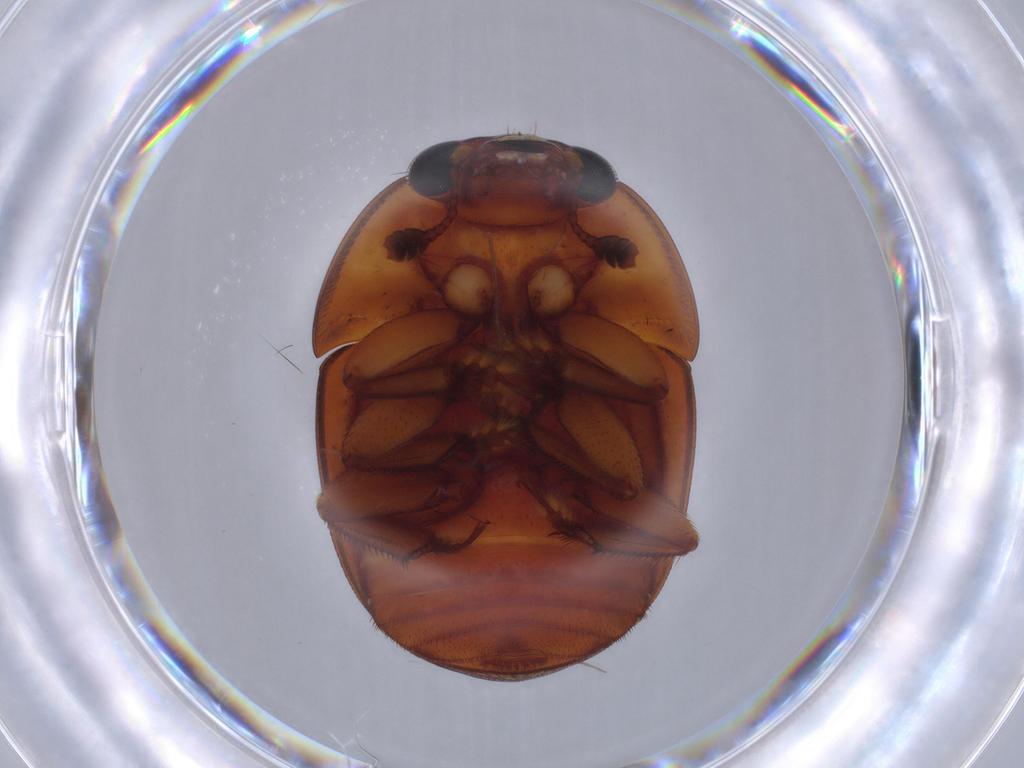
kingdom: Animalia
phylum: Arthropoda
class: Insecta
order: Coleoptera
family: Nitidulidae
